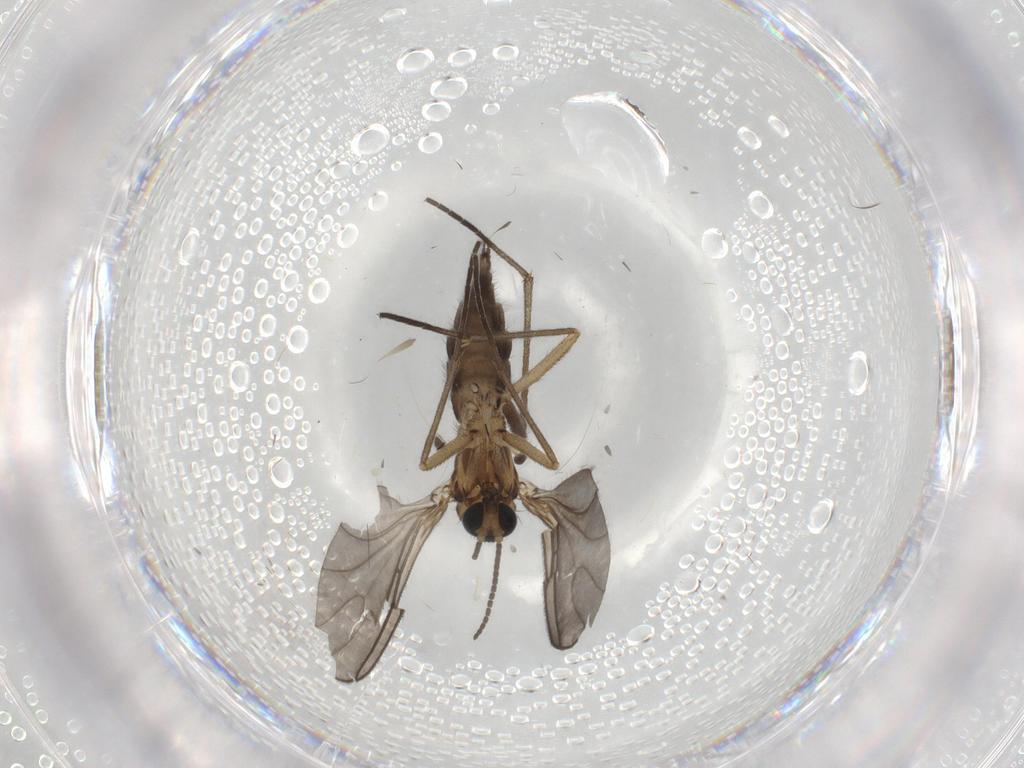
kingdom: Animalia
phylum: Arthropoda
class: Insecta
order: Diptera
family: Sciaridae
